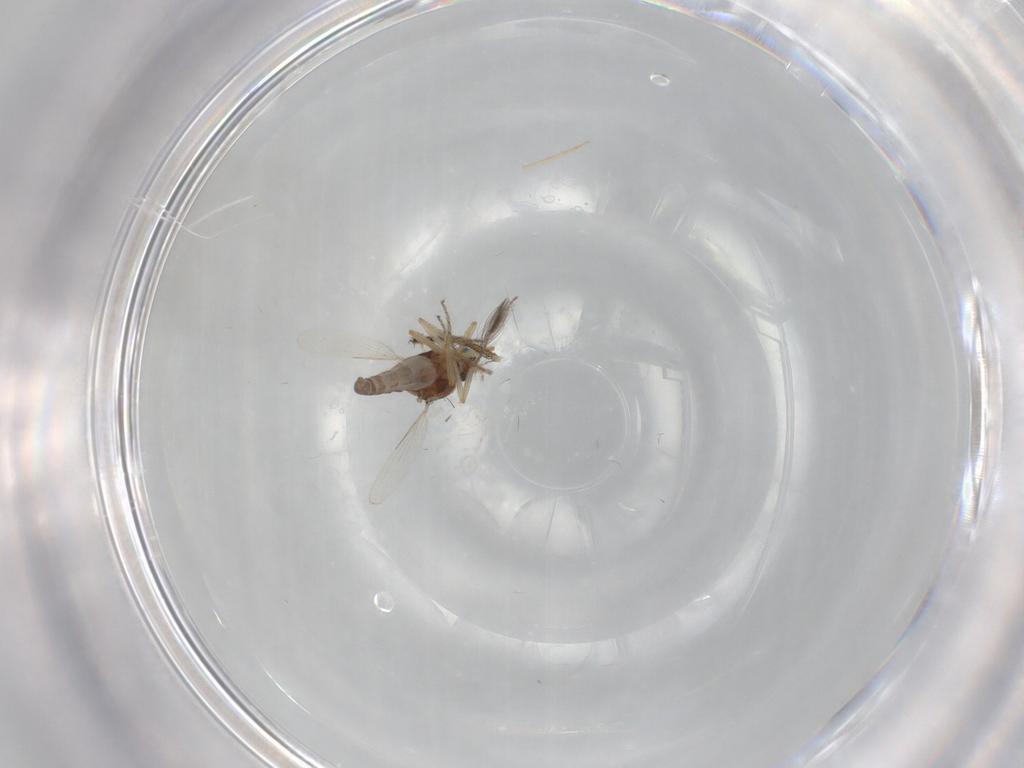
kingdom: Animalia
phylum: Arthropoda
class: Insecta
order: Diptera
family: Ceratopogonidae
